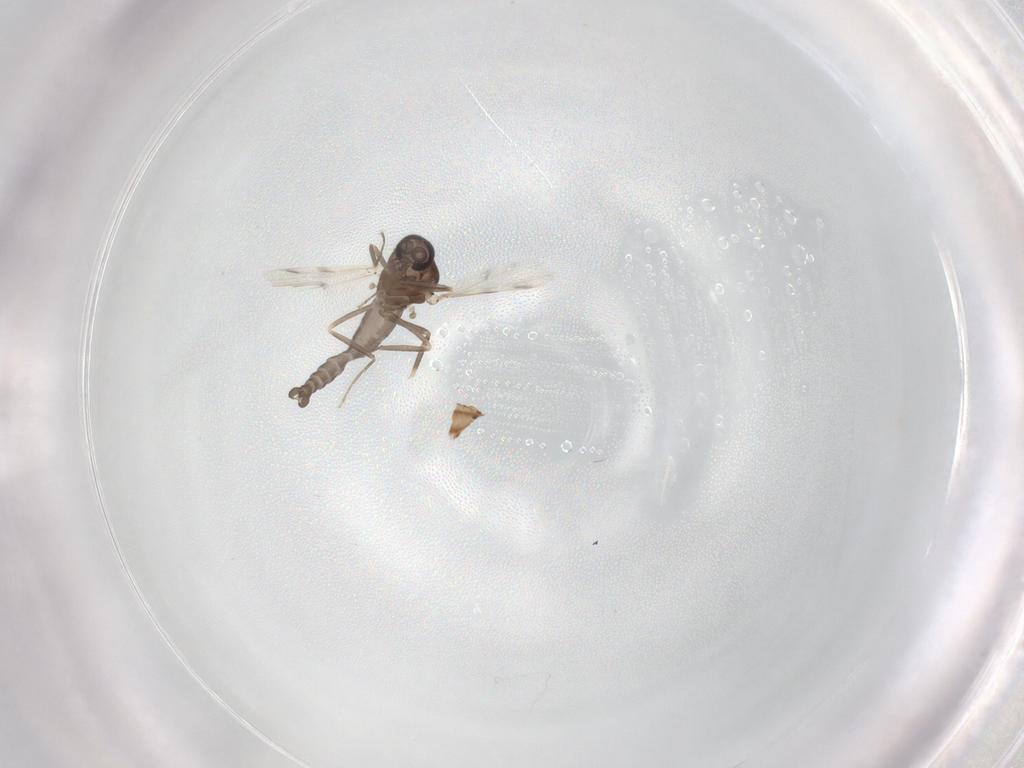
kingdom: Animalia
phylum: Arthropoda
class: Insecta
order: Diptera
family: Ceratopogonidae
